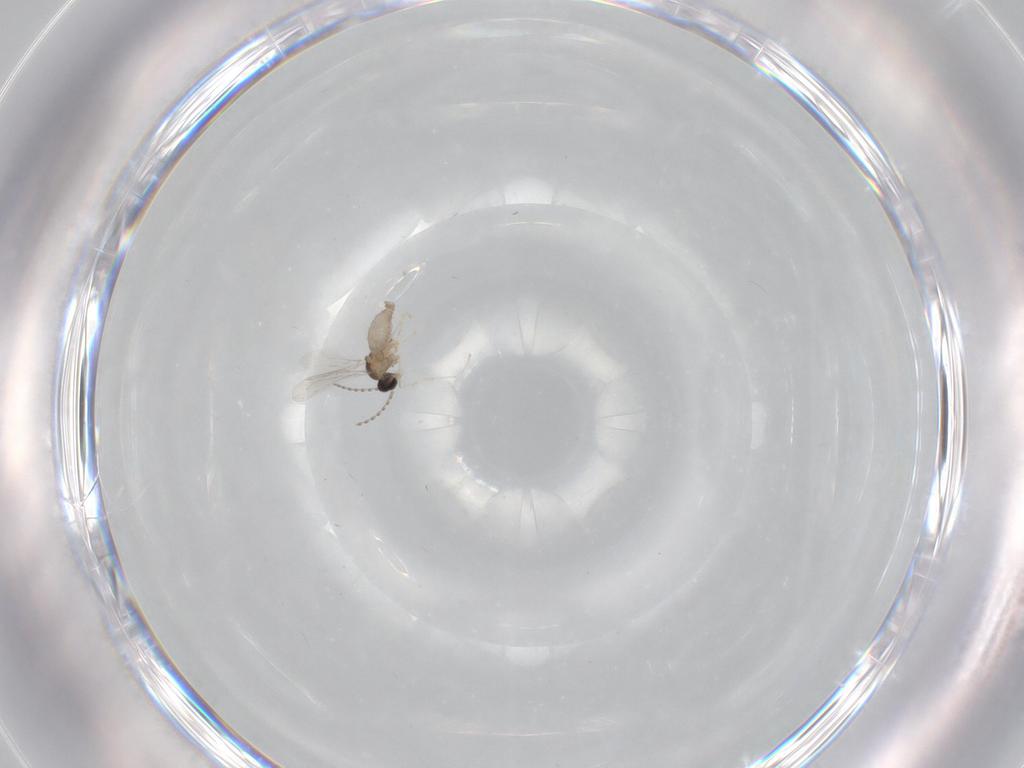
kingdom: Animalia
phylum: Arthropoda
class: Insecta
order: Diptera
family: Cecidomyiidae
